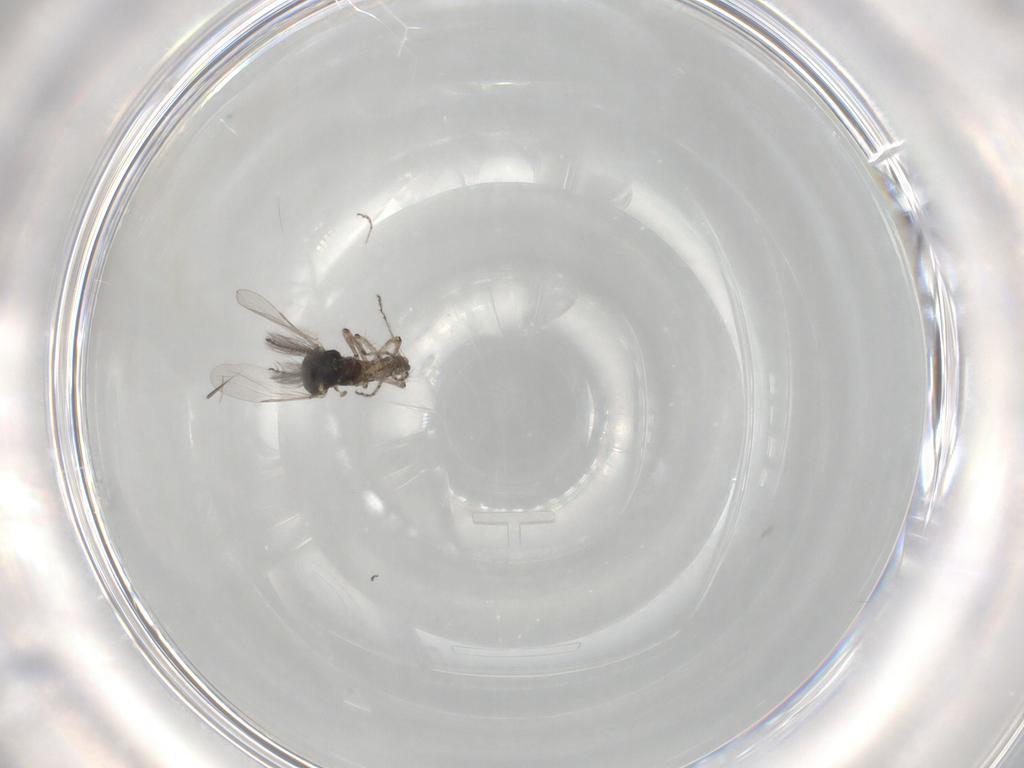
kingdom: Animalia
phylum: Arthropoda
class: Insecta
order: Diptera
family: Ceratopogonidae
